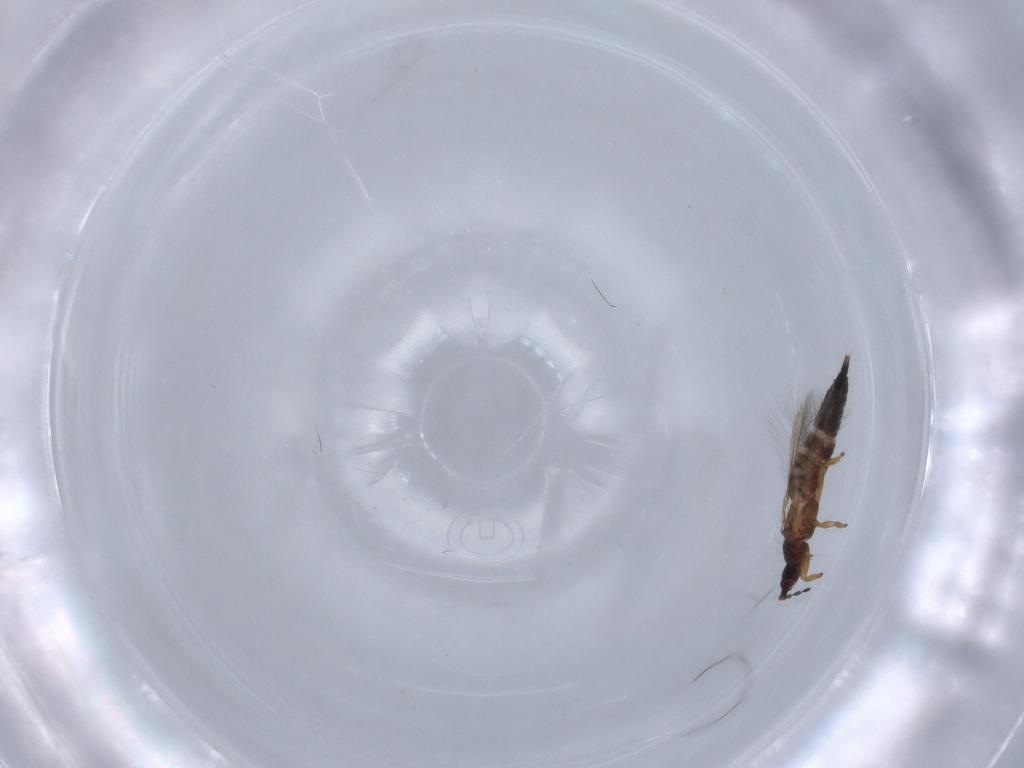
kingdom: Animalia
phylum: Arthropoda
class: Insecta
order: Thysanoptera
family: Phlaeothripidae
